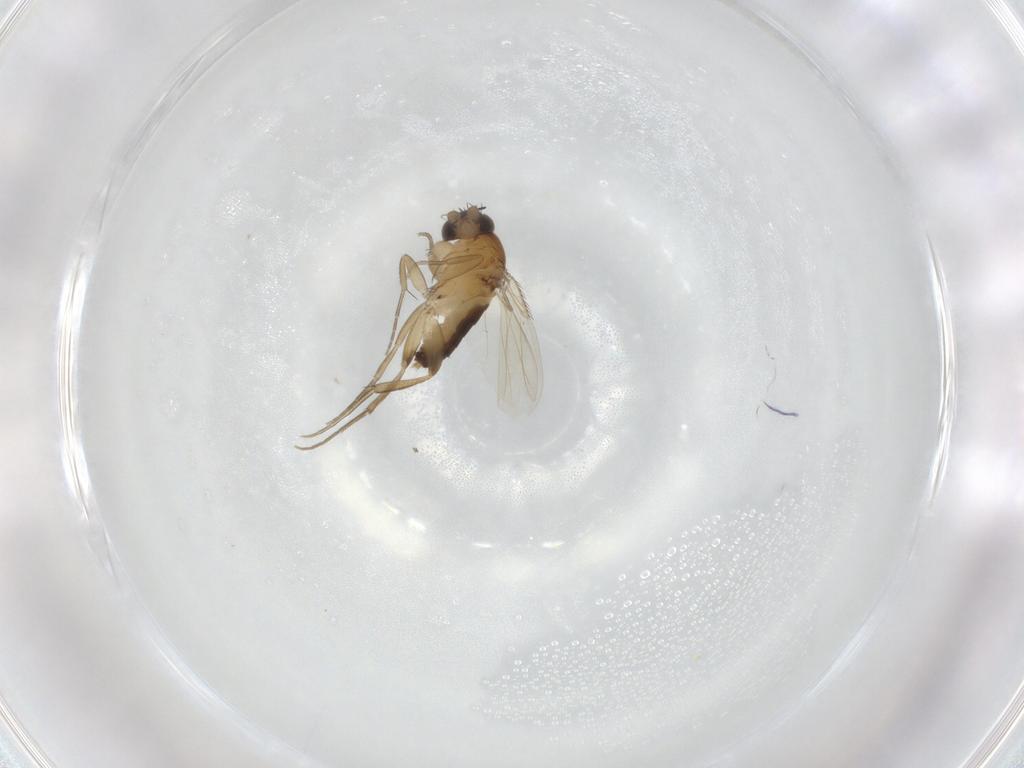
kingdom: Animalia
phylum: Arthropoda
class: Insecta
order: Diptera
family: Phoridae
